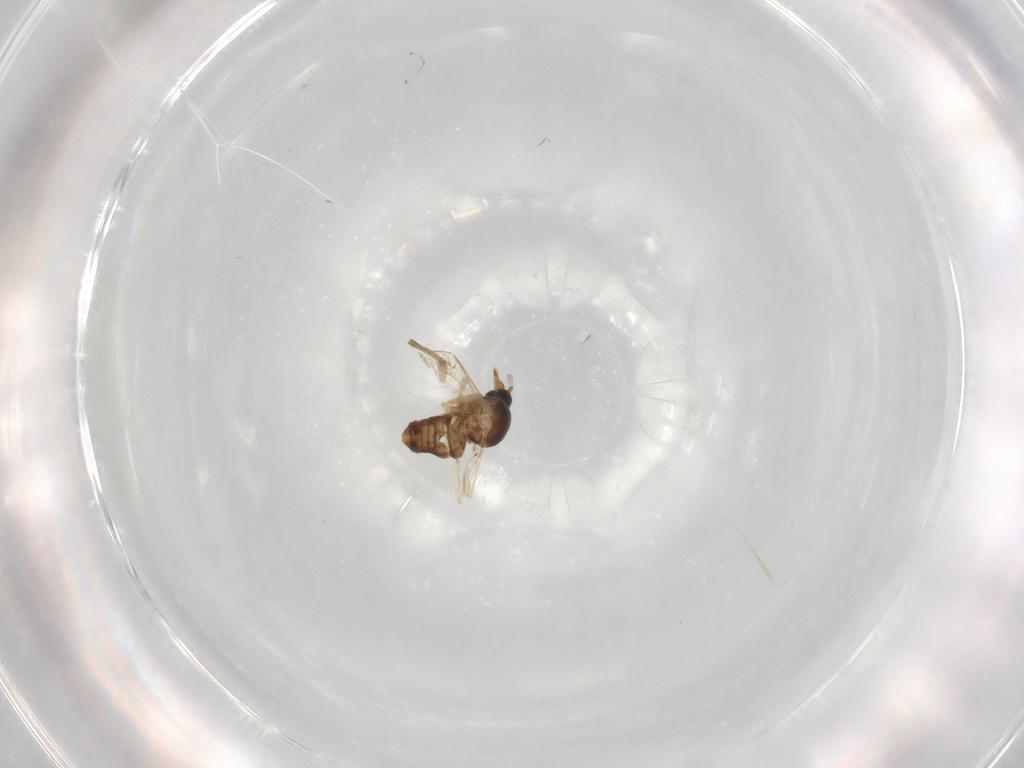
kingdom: Animalia
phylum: Arthropoda
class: Insecta
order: Diptera
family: Ceratopogonidae
